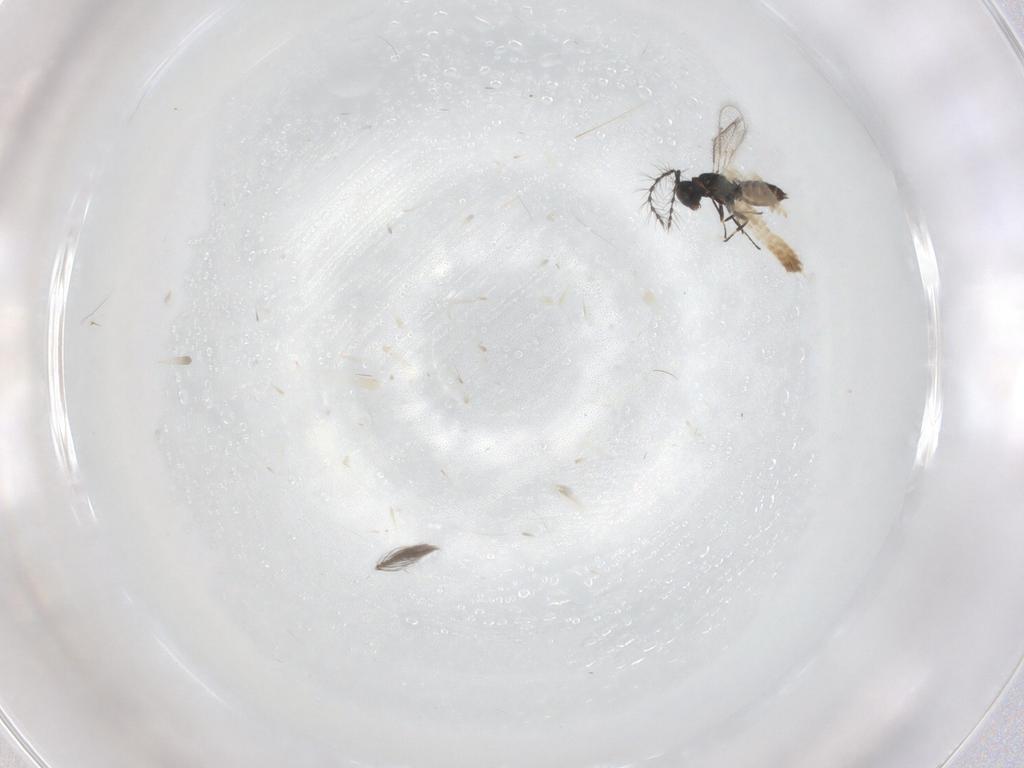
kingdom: Animalia
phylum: Arthropoda
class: Insecta
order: Hymenoptera
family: Eulophidae
